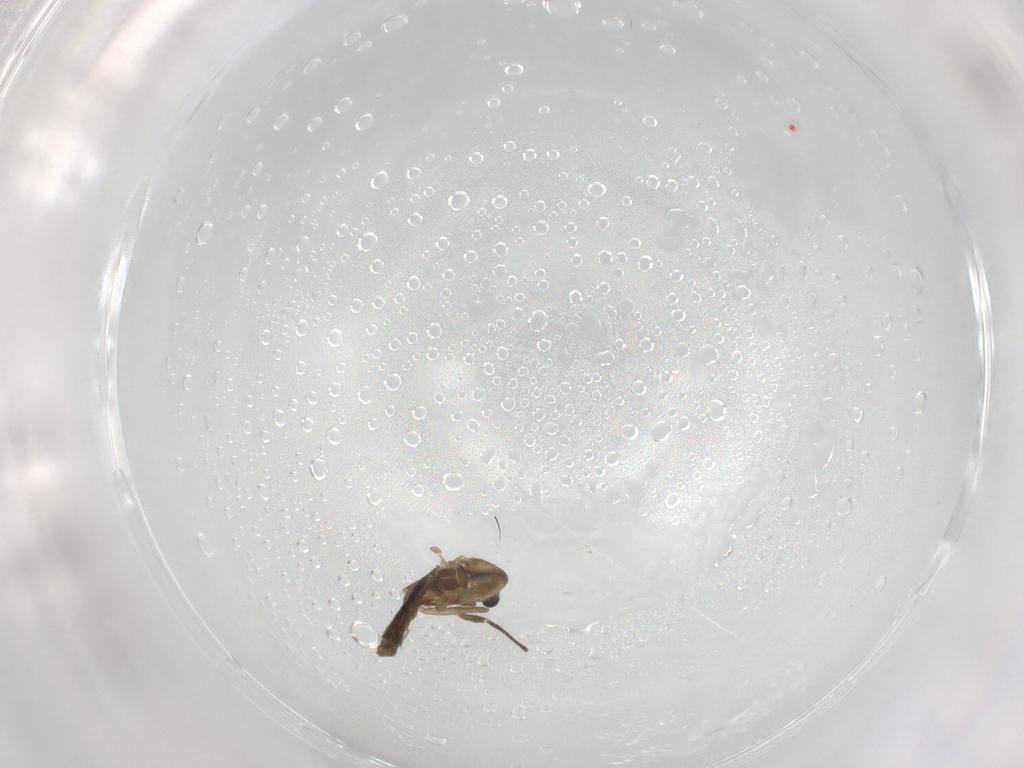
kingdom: Animalia
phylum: Arthropoda
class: Insecta
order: Diptera
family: Chironomidae
